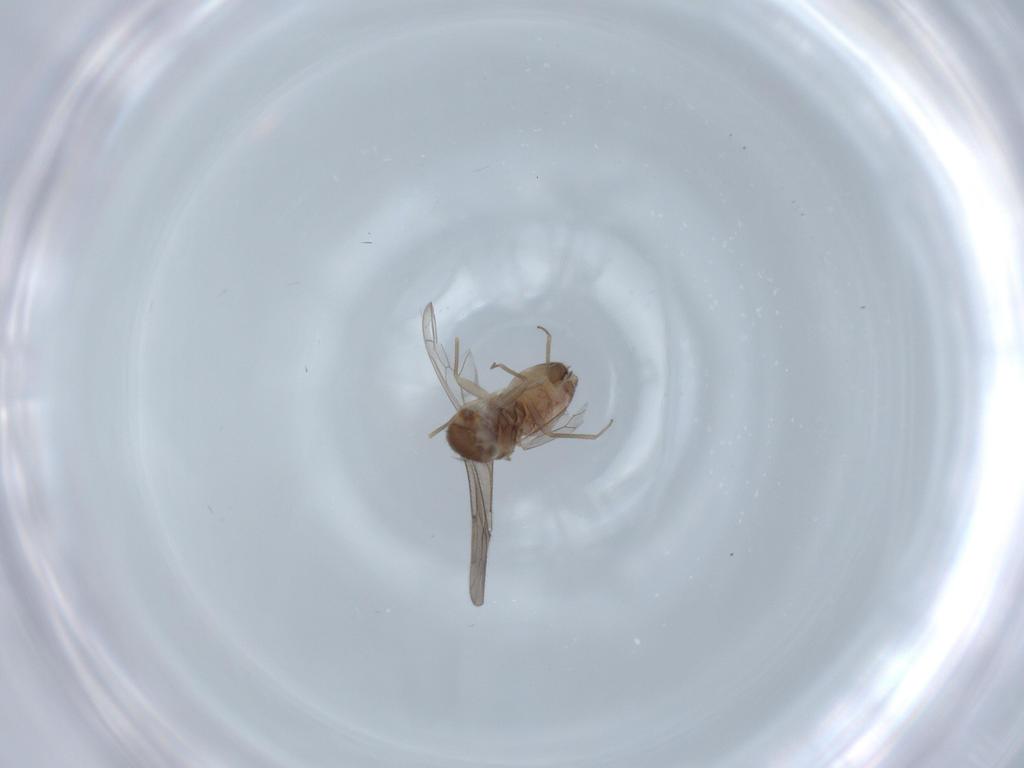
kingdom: Animalia
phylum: Arthropoda
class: Insecta
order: Psocodea
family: Ectopsocidae
